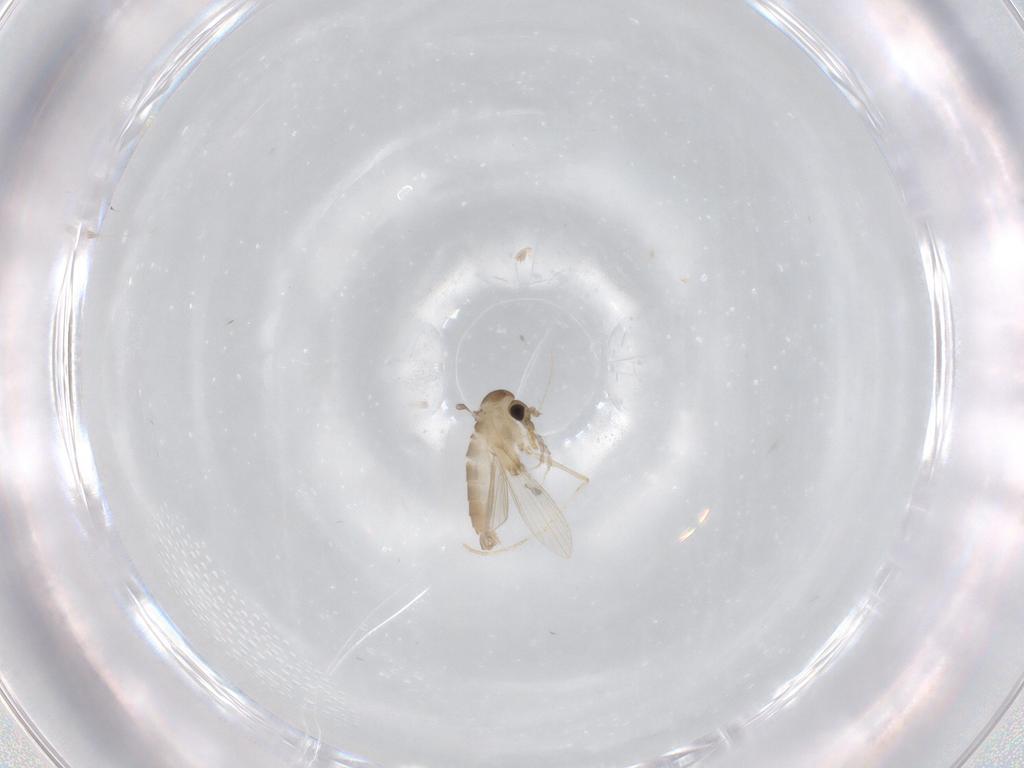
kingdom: Animalia
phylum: Arthropoda
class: Insecta
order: Diptera
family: Psychodidae
